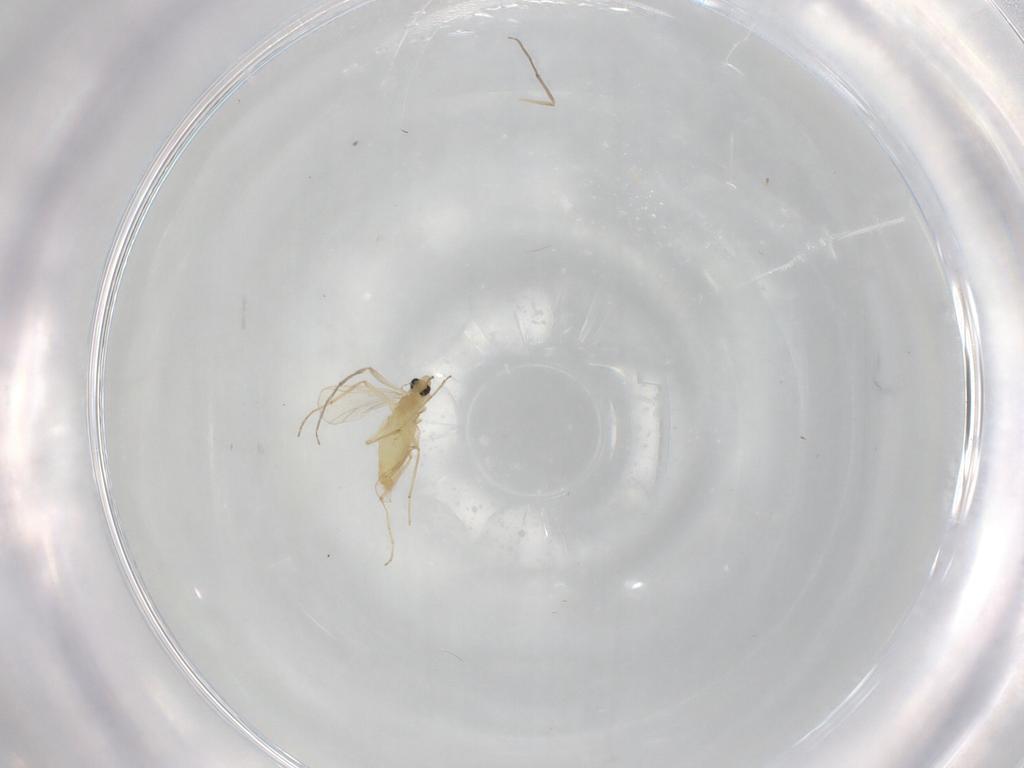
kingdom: Animalia
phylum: Arthropoda
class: Insecta
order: Diptera
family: Chironomidae
